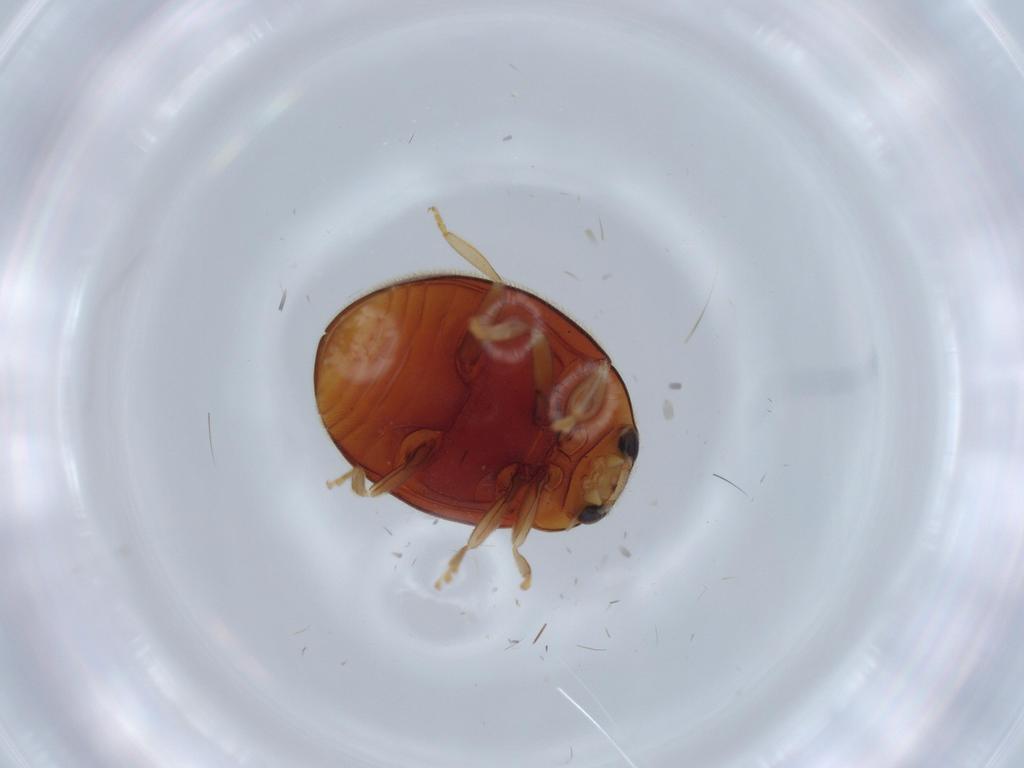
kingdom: Animalia
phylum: Arthropoda
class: Insecta
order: Coleoptera
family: Coccinellidae
